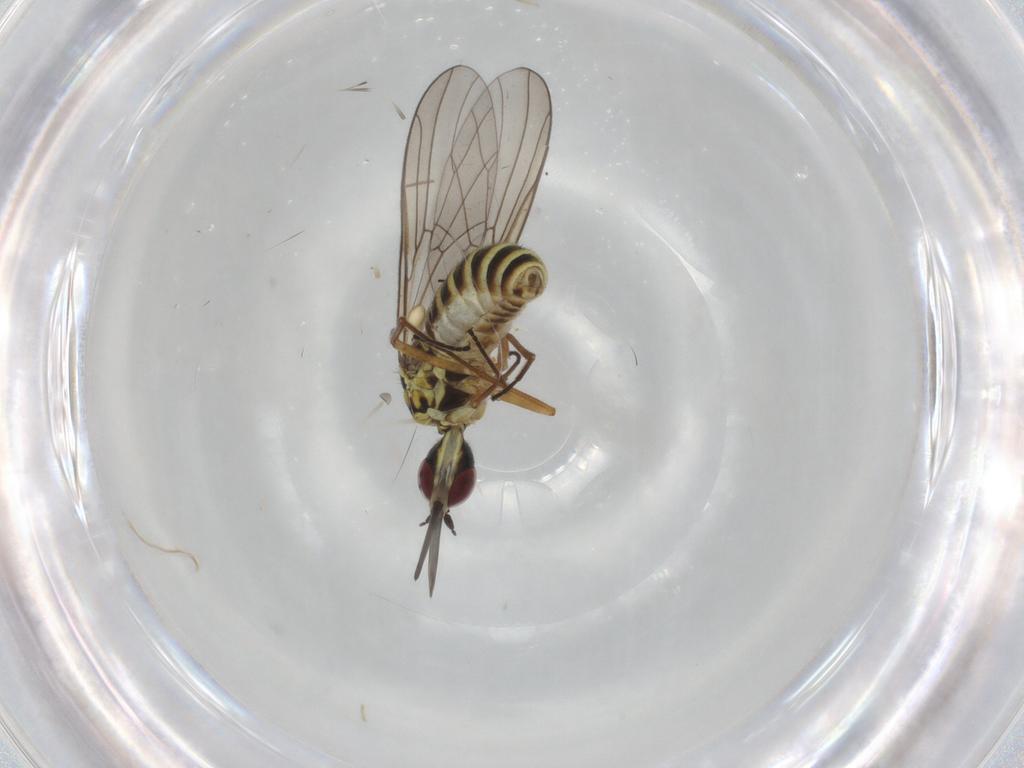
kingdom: Animalia
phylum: Arthropoda
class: Insecta
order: Diptera
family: Mythicomyiidae
